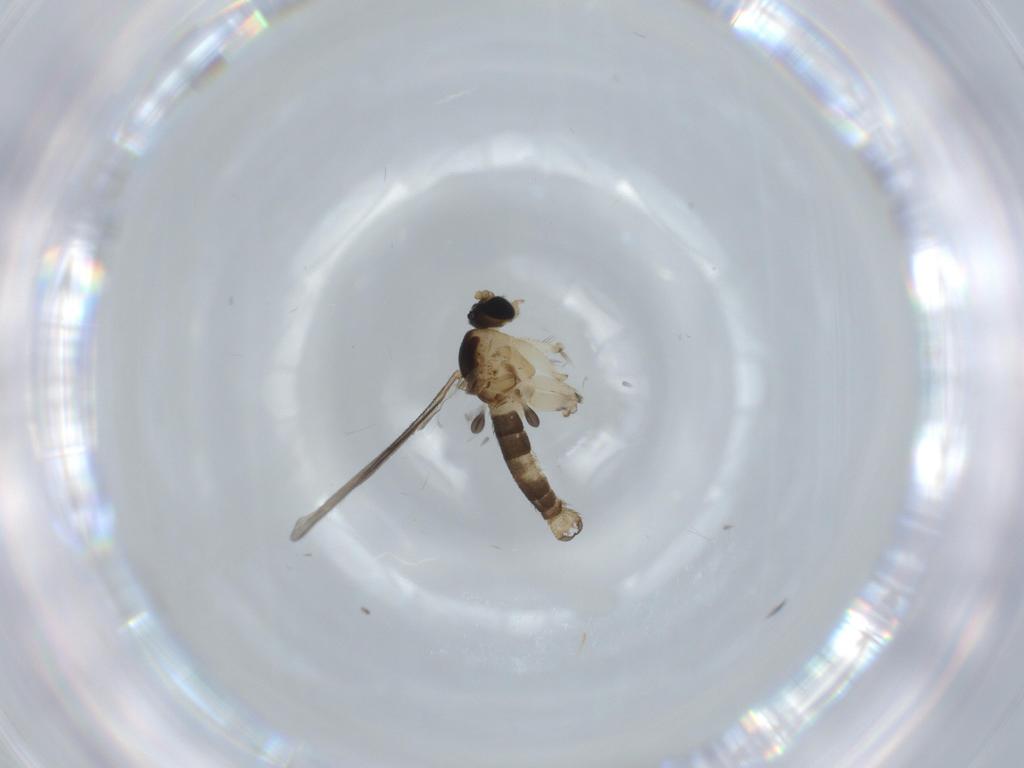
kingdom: Animalia
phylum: Arthropoda
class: Insecta
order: Diptera
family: Sciaridae
